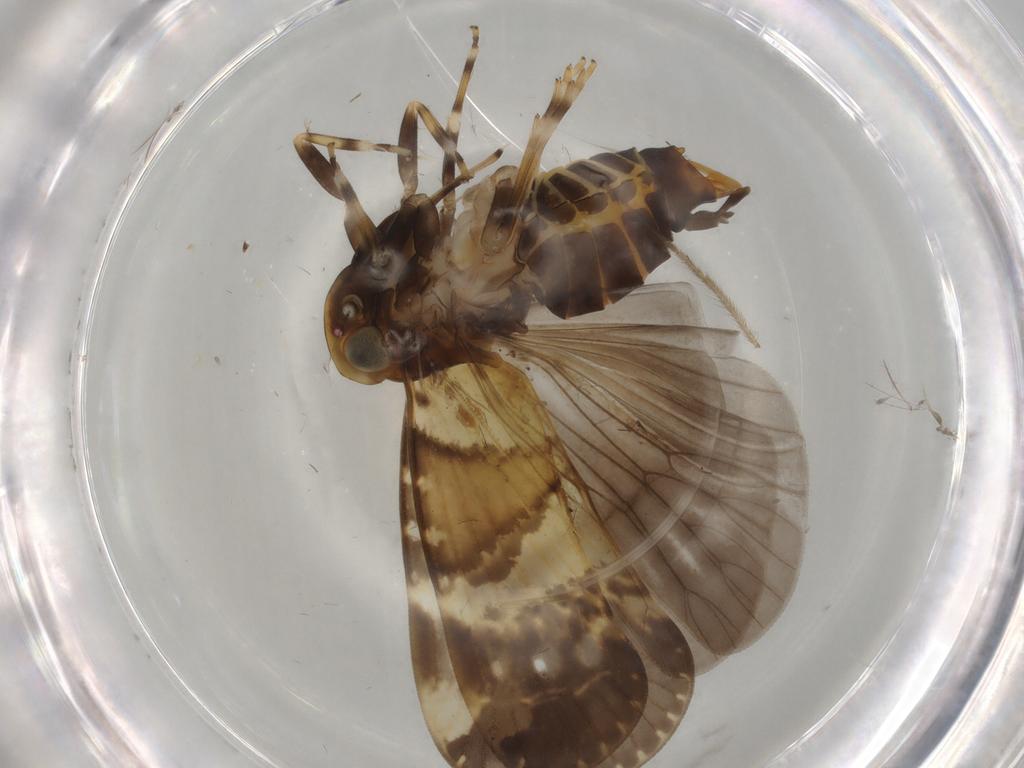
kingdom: Animalia
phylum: Arthropoda
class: Insecta
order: Hemiptera
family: Cixiidae
